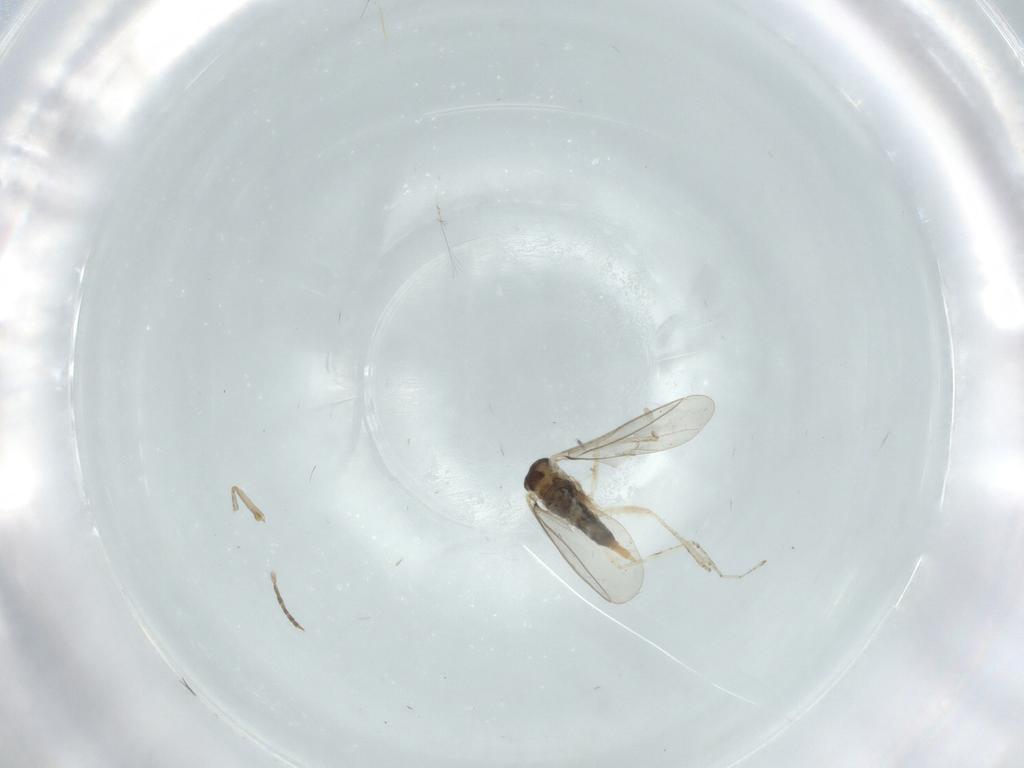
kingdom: Animalia
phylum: Arthropoda
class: Insecta
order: Diptera
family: Cecidomyiidae
